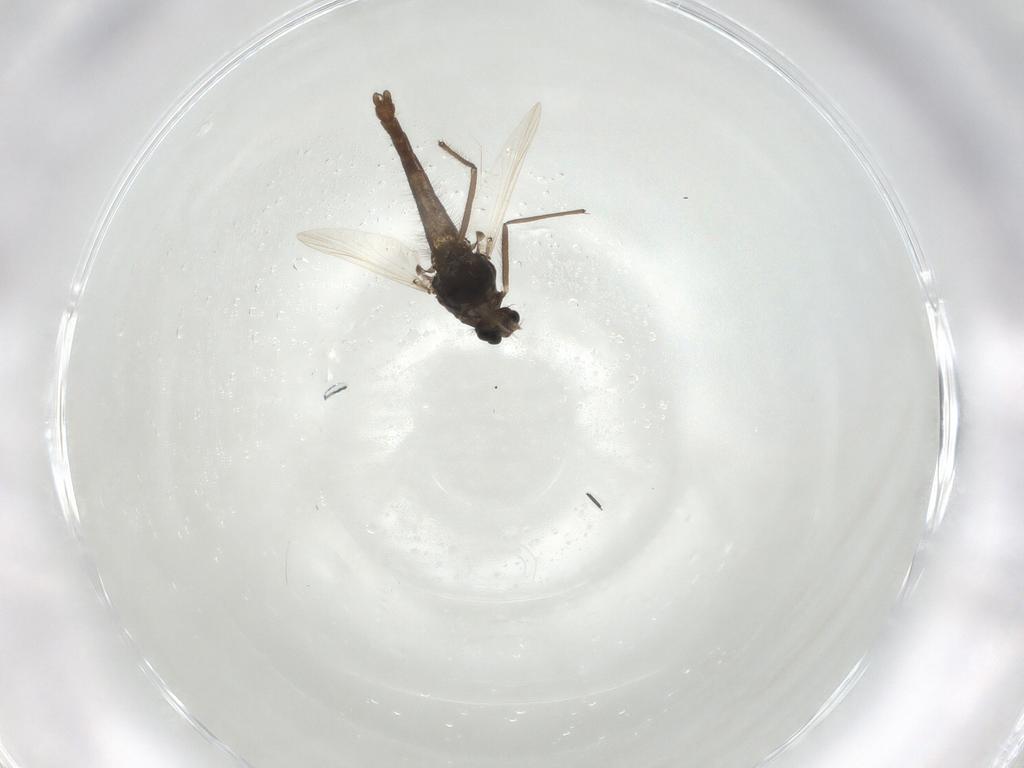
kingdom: Animalia
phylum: Arthropoda
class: Insecta
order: Diptera
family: Chironomidae
